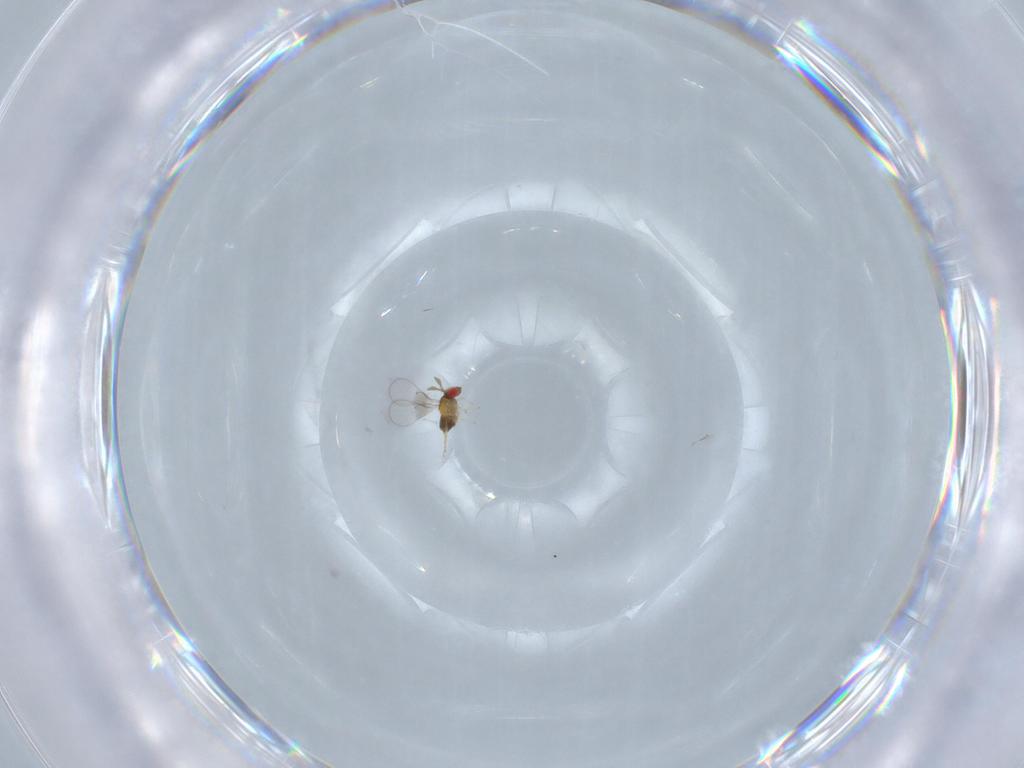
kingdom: Animalia
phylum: Arthropoda
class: Insecta
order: Hymenoptera
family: Trichogrammatidae
